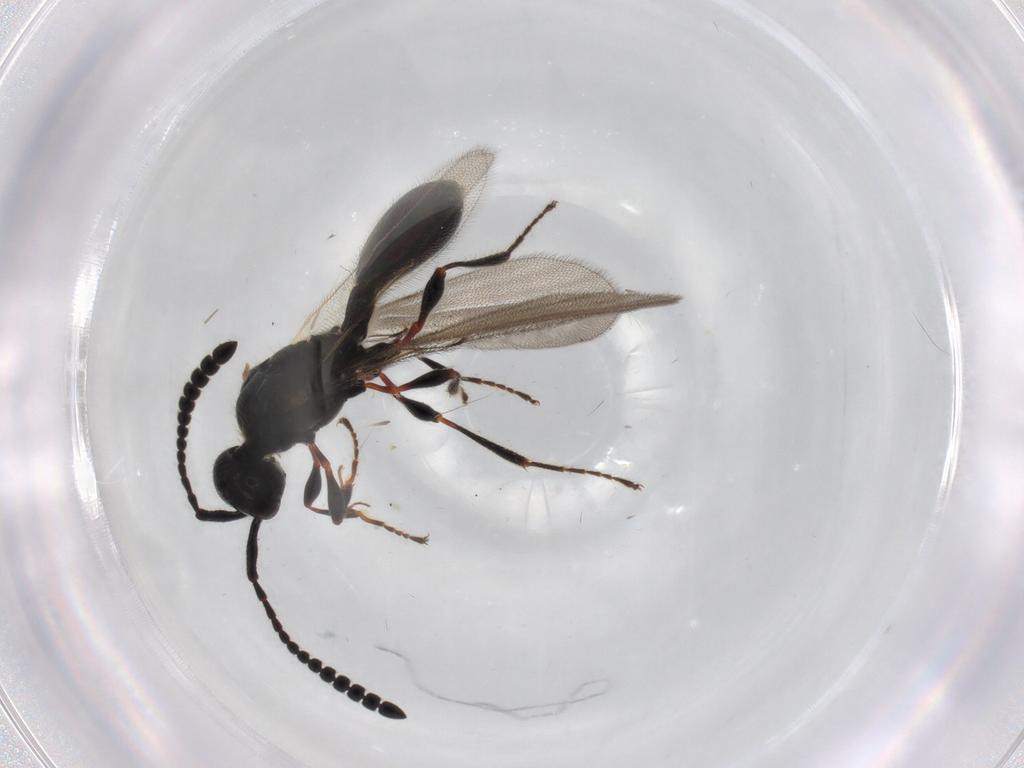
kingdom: Animalia
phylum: Arthropoda
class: Insecta
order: Hymenoptera
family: Diapriidae
